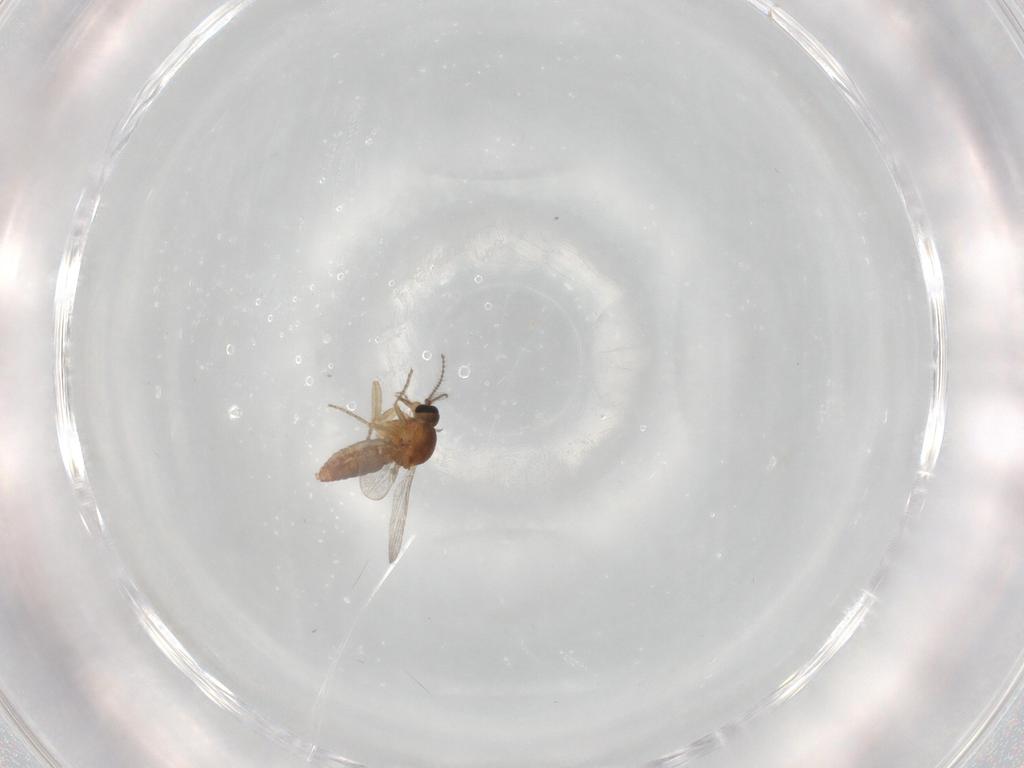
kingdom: Animalia
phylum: Arthropoda
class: Insecta
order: Diptera
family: Ceratopogonidae
